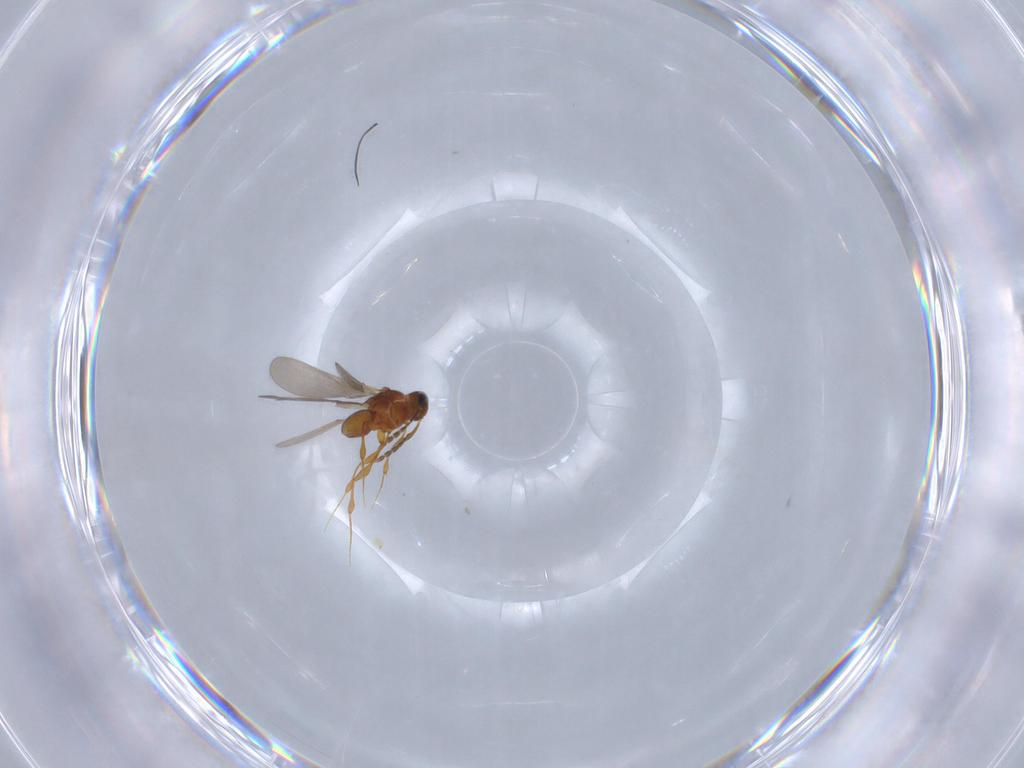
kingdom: Animalia
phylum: Arthropoda
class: Insecta
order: Hymenoptera
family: Platygastridae
